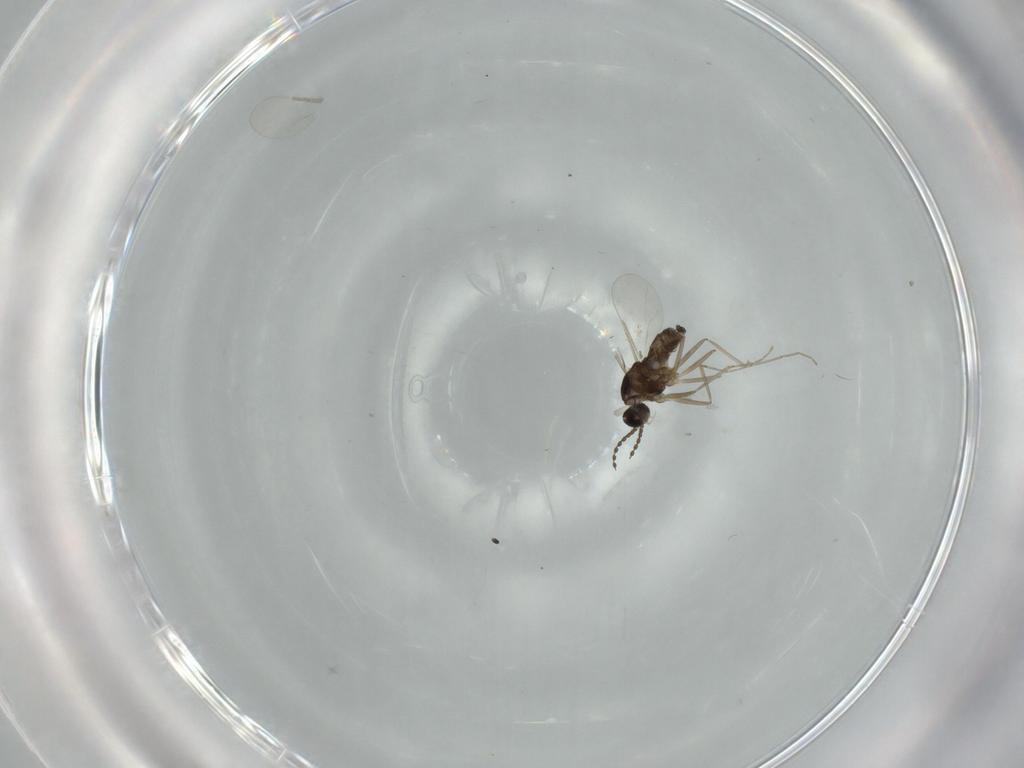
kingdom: Animalia
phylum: Arthropoda
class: Insecta
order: Diptera
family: Cecidomyiidae
